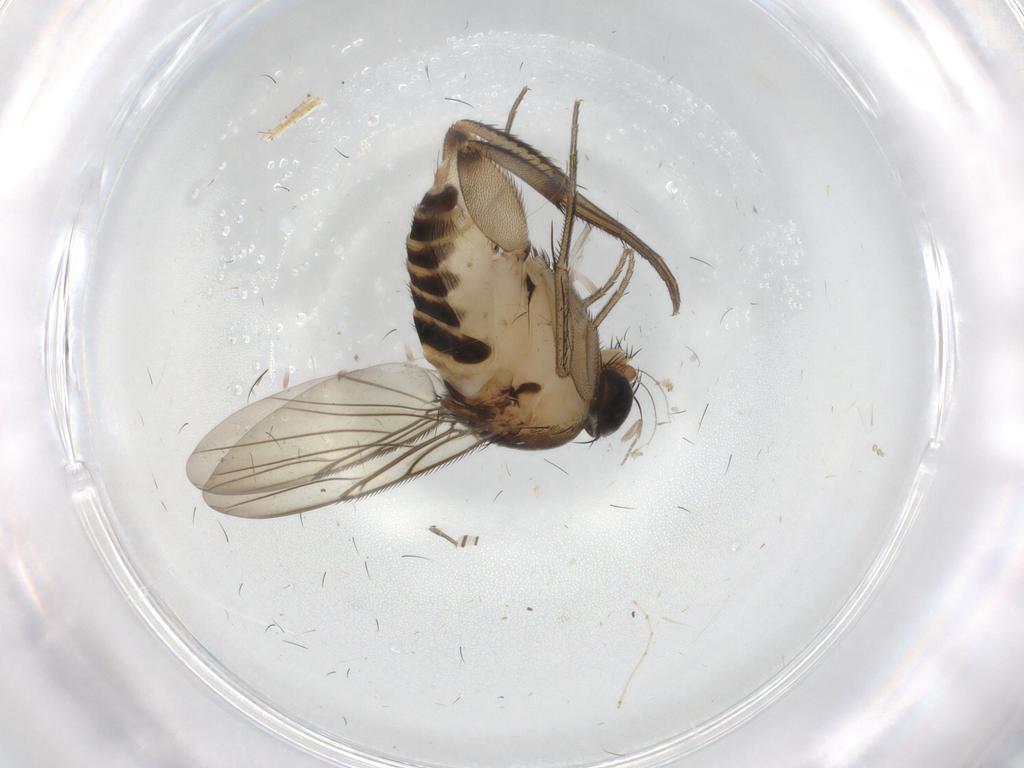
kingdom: Animalia
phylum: Arthropoda
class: Insecta
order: Diptera
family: Phoridae
